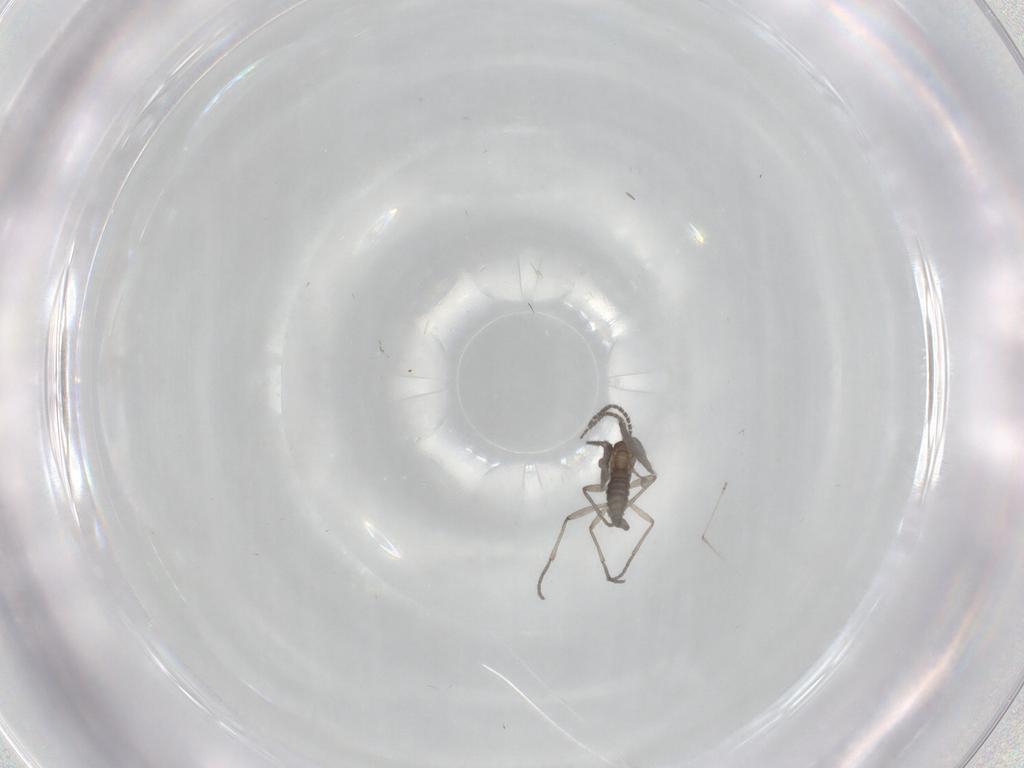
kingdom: Animalia
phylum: Arthropoda
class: Insecta
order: Diptera
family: Sciaridae
